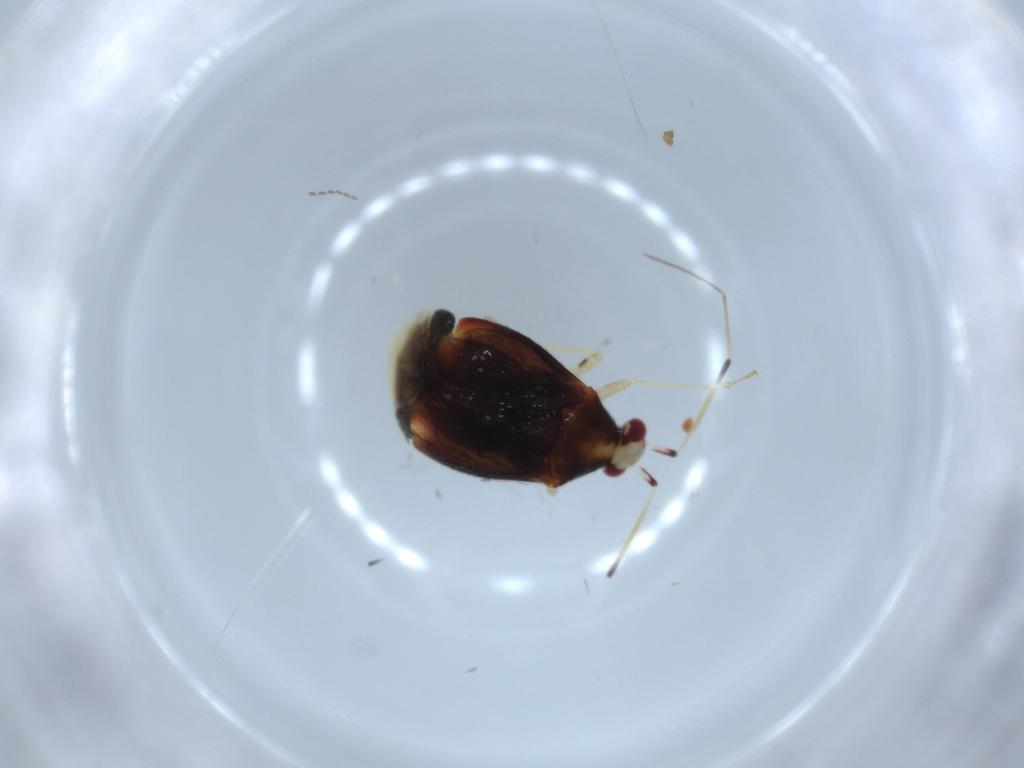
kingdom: Animalia
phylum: Arthropoda
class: Insecta
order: Hemiptera
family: Miridae
